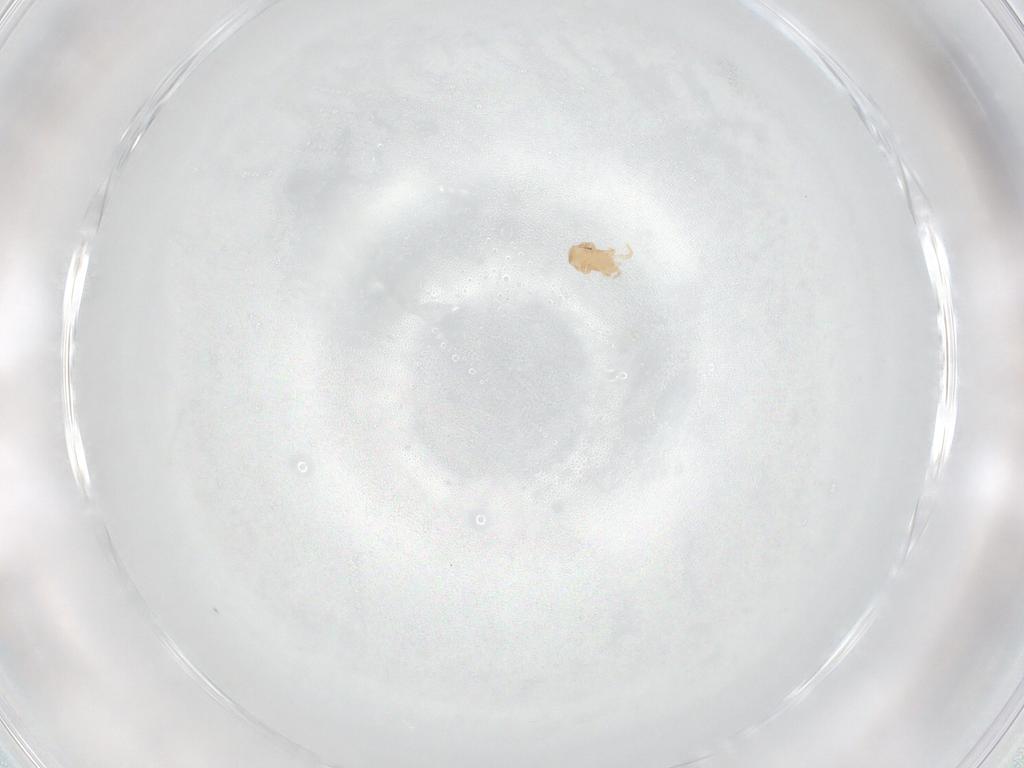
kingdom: Animalia
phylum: Arthropoda
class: Arachnida
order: Mesostigmata
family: Digamasellidae
